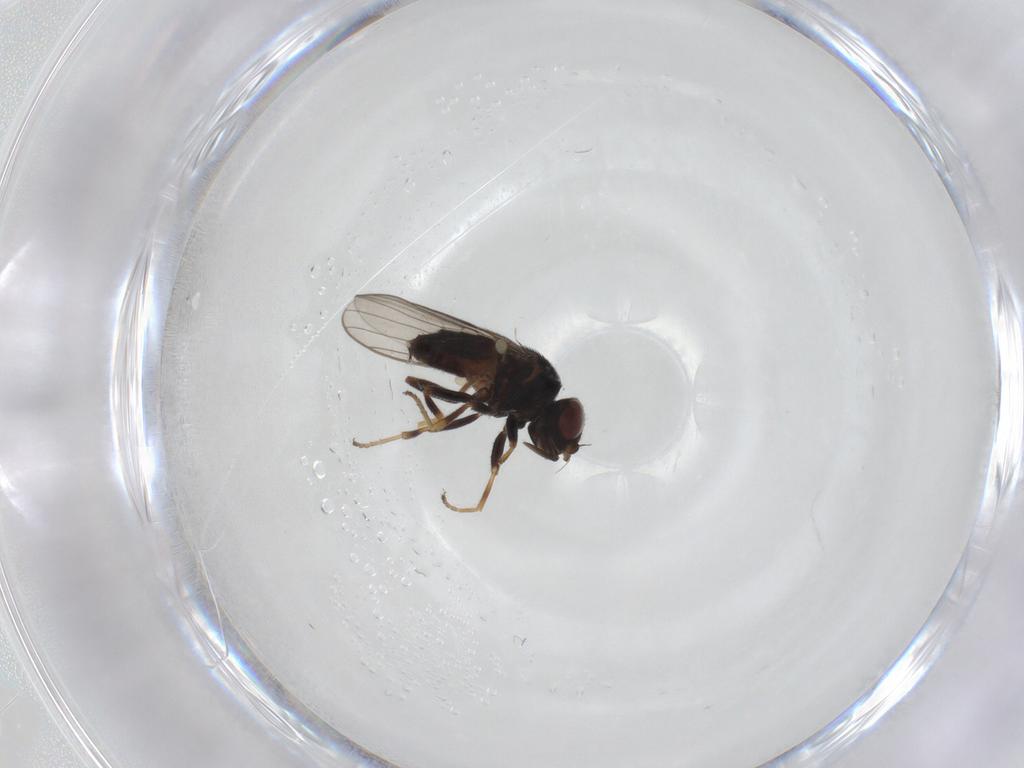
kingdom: Animalia
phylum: Arthropoda
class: Insecta
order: Diptera
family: Chloropidae
